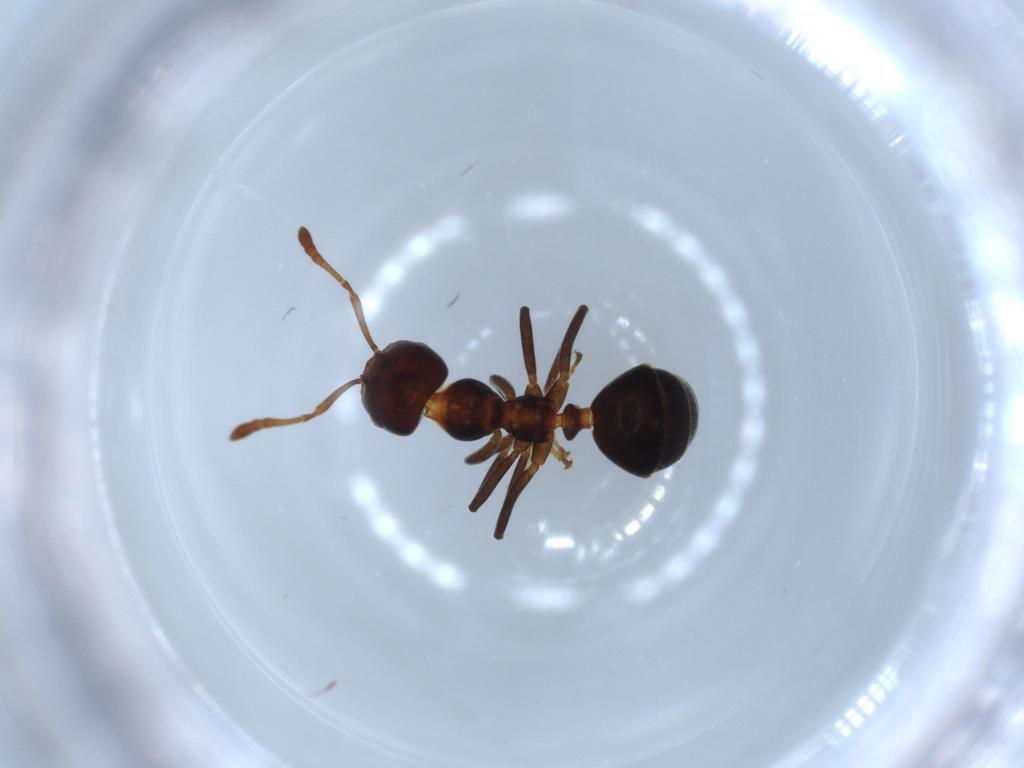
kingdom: Animalia
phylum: Arthropoda
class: Insecta
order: Hymenoptera
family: Formicidae
